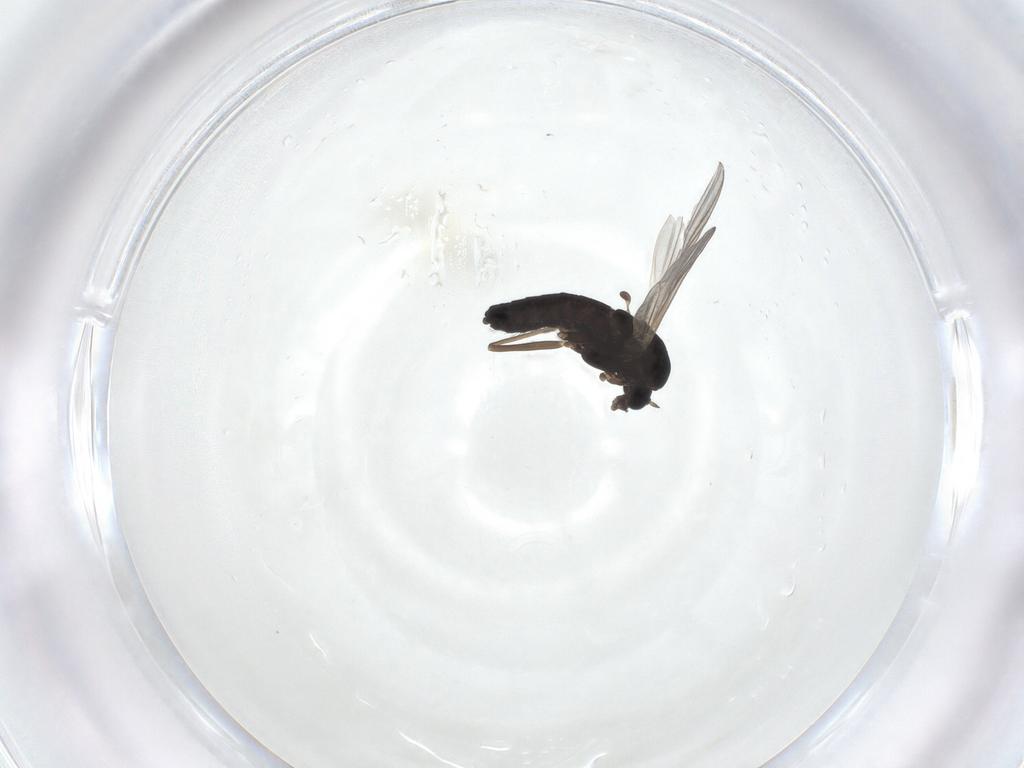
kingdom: Animalia
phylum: Arthropoda
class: Insecta
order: Diptera
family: Chironomidae
